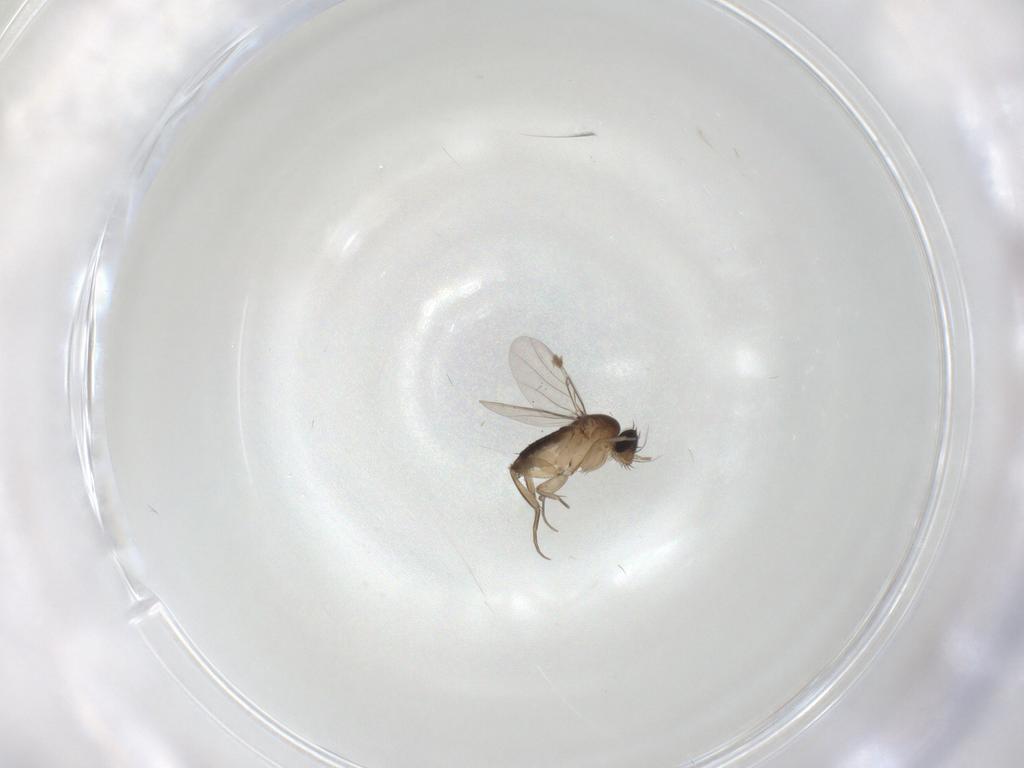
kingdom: Animalia
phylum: Arthropoda
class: Insecta
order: Diptera
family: Phoridae
